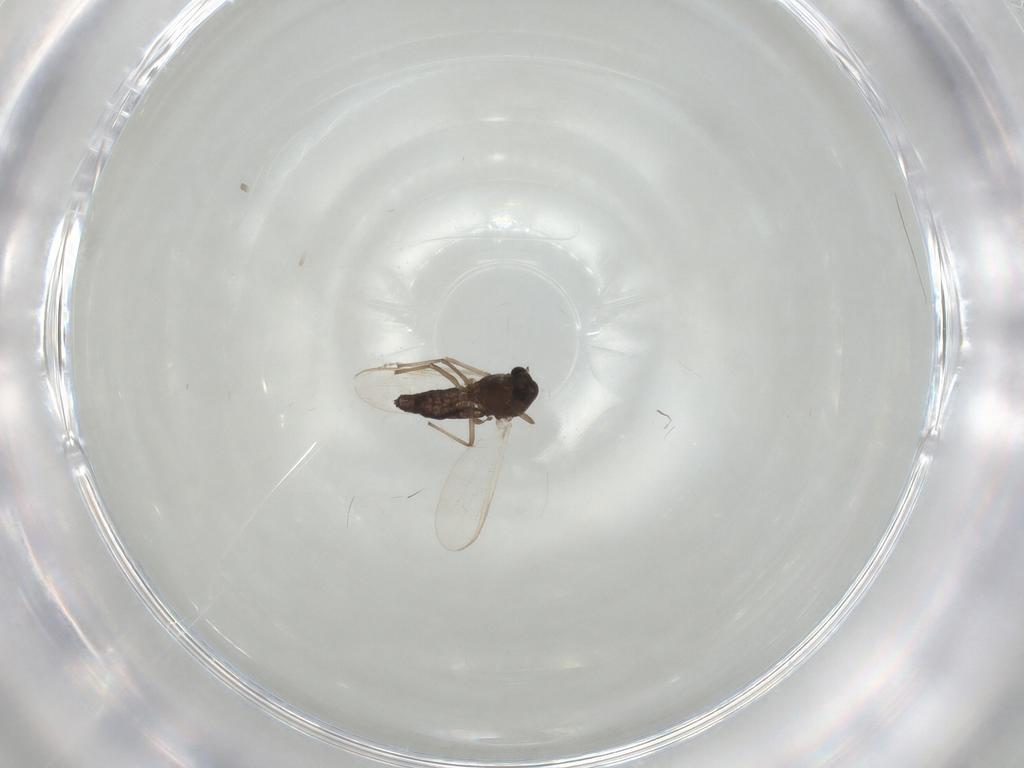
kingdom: Animalia
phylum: Arthropoda
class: Insecta
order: Diptera
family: Chironomidae
